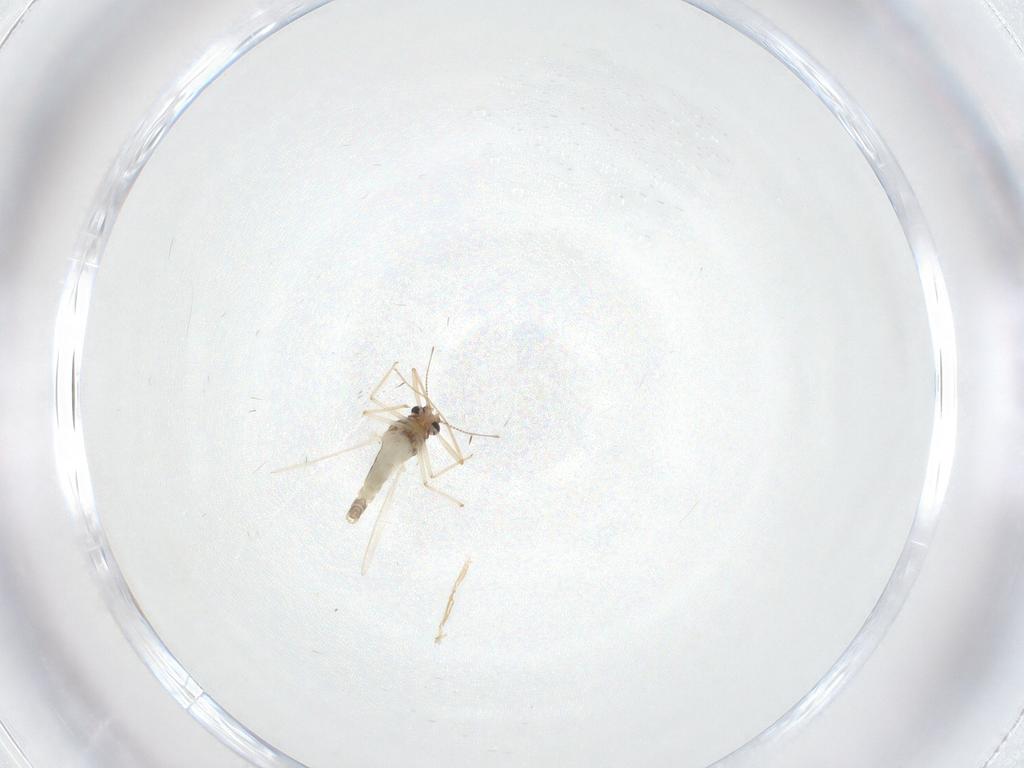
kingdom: Animalia
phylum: Arthropoda
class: Insecta
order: Diptera
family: Chironomidae
